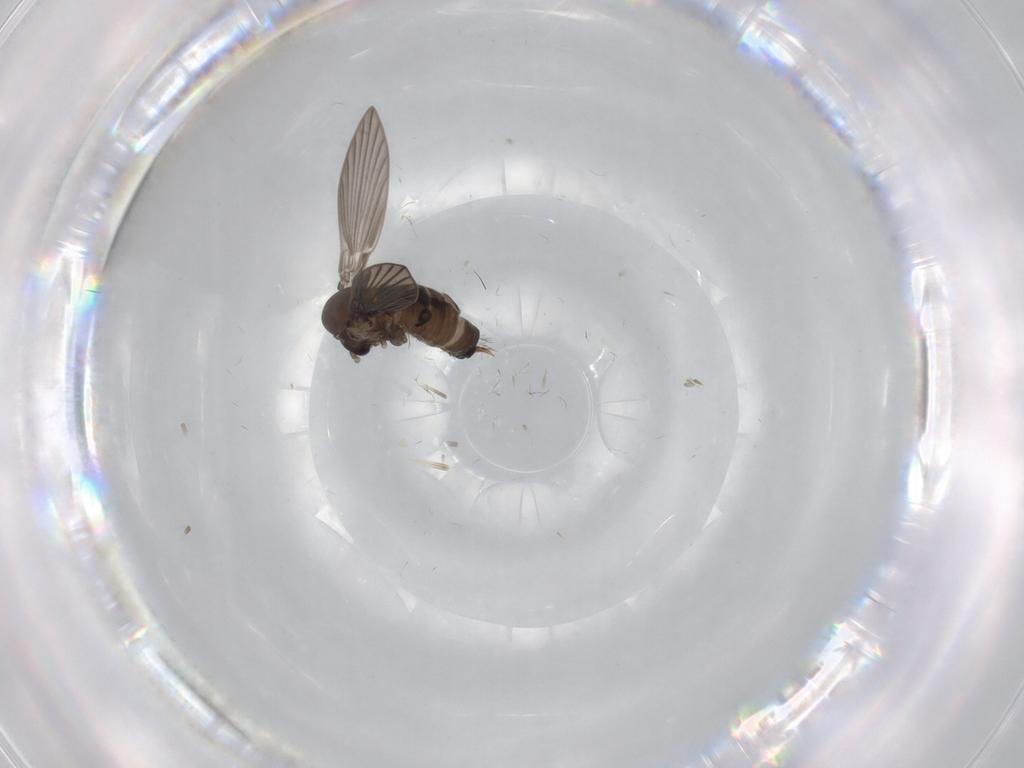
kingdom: Animalia
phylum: Arthropoda
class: Insecta
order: Diptera
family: Psychodidae
